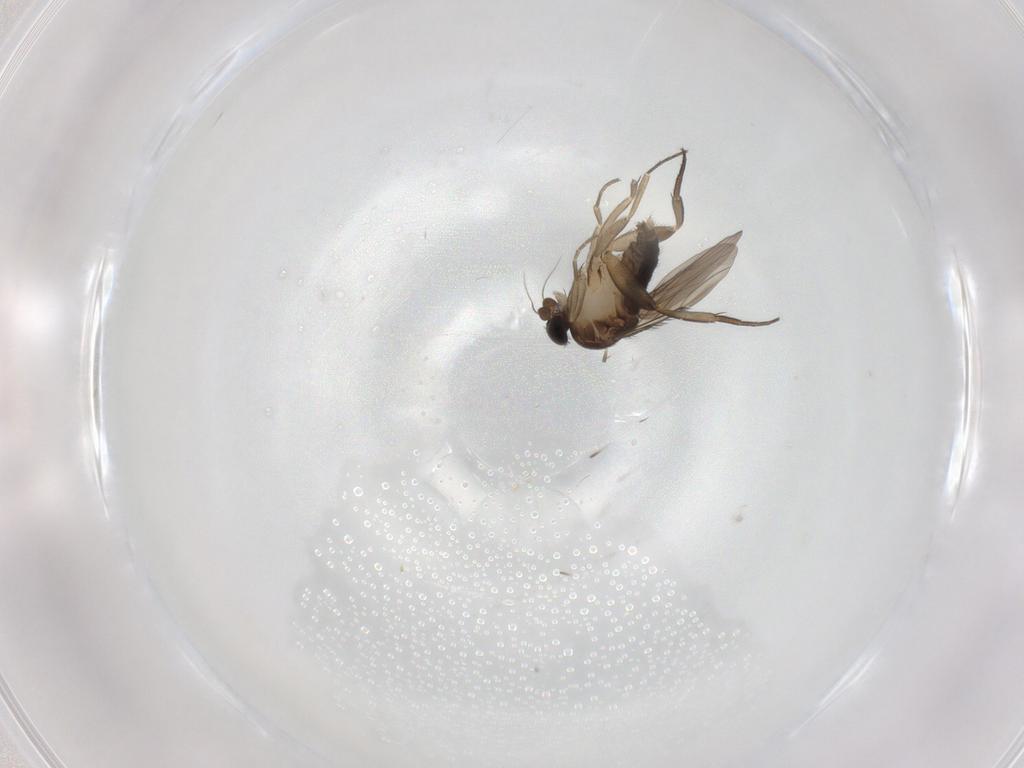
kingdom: Animalia
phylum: Arthropoda
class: Insecta
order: Diptera
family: Phoridae
